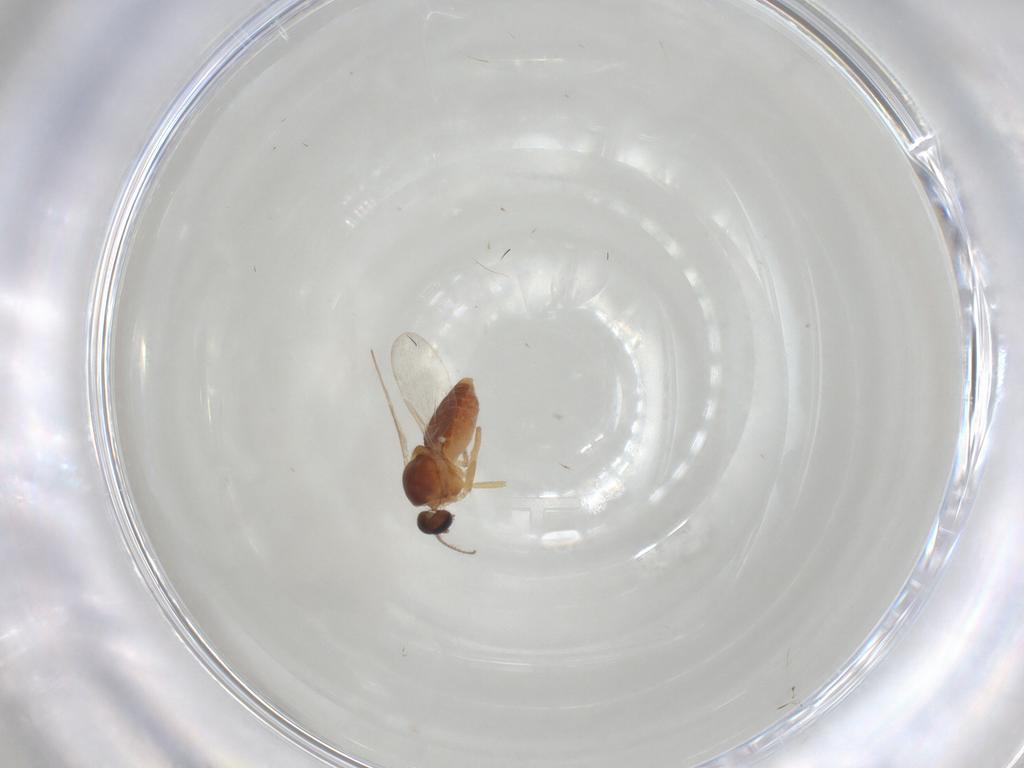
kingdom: Animalia
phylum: Arthropoda
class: Insecta
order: Diptera
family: Ceratopogonidae
